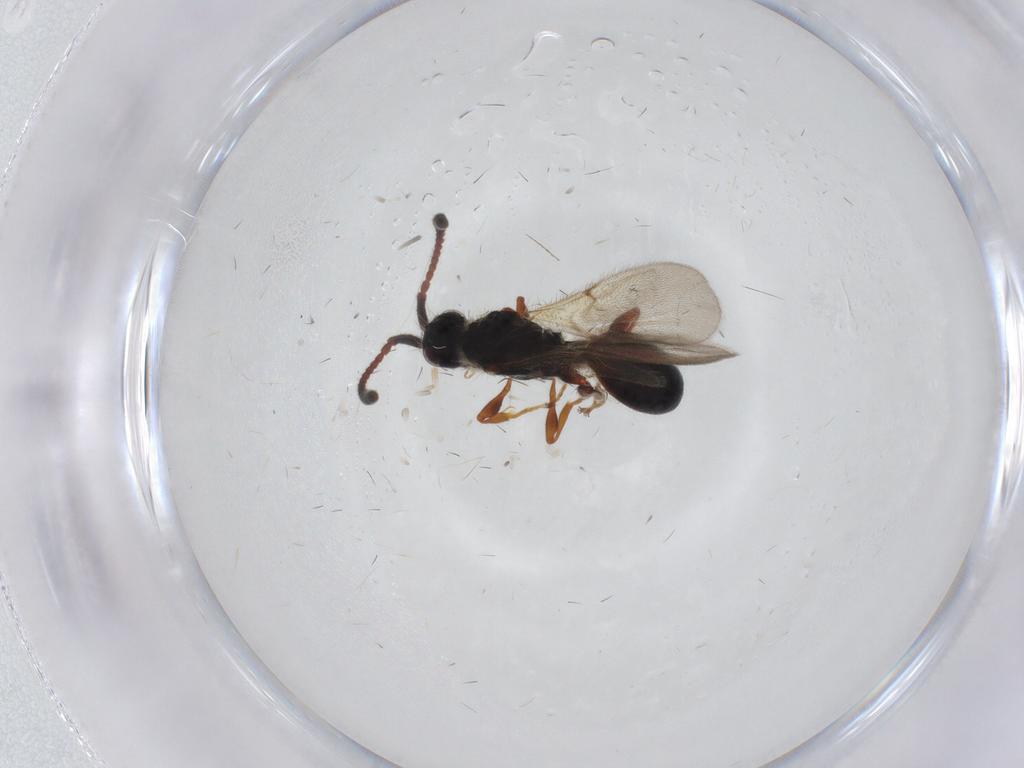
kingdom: Animalia
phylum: Arthropoda
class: Insecta
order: Hymenoptera
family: Diapriidae
